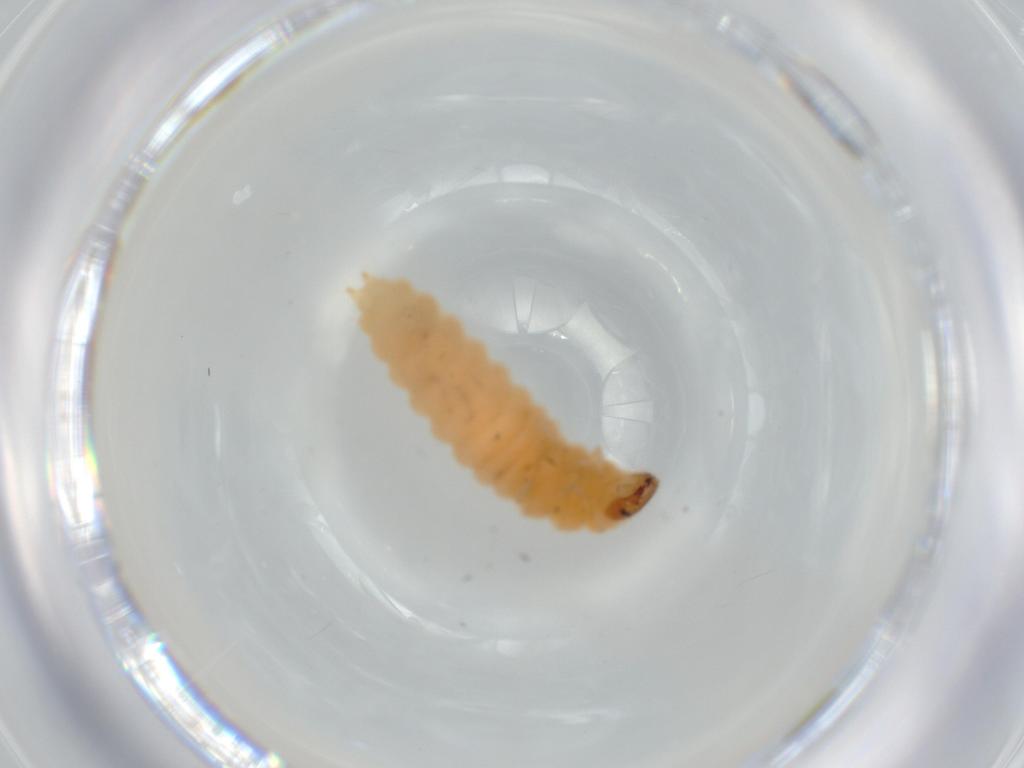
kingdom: Animalia
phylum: Arthropoda
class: Insecta
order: Coleoptera
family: Melyridae
